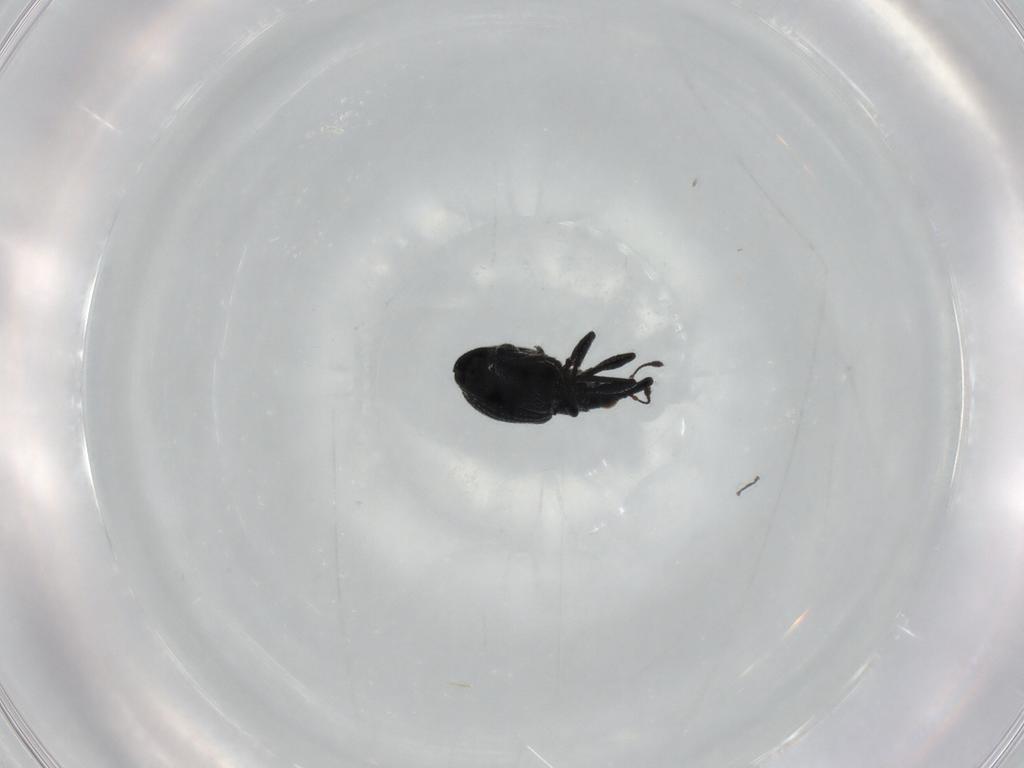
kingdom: Animalia
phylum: Arthropoda
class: Insecta
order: Coleoptera
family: Brentidae
